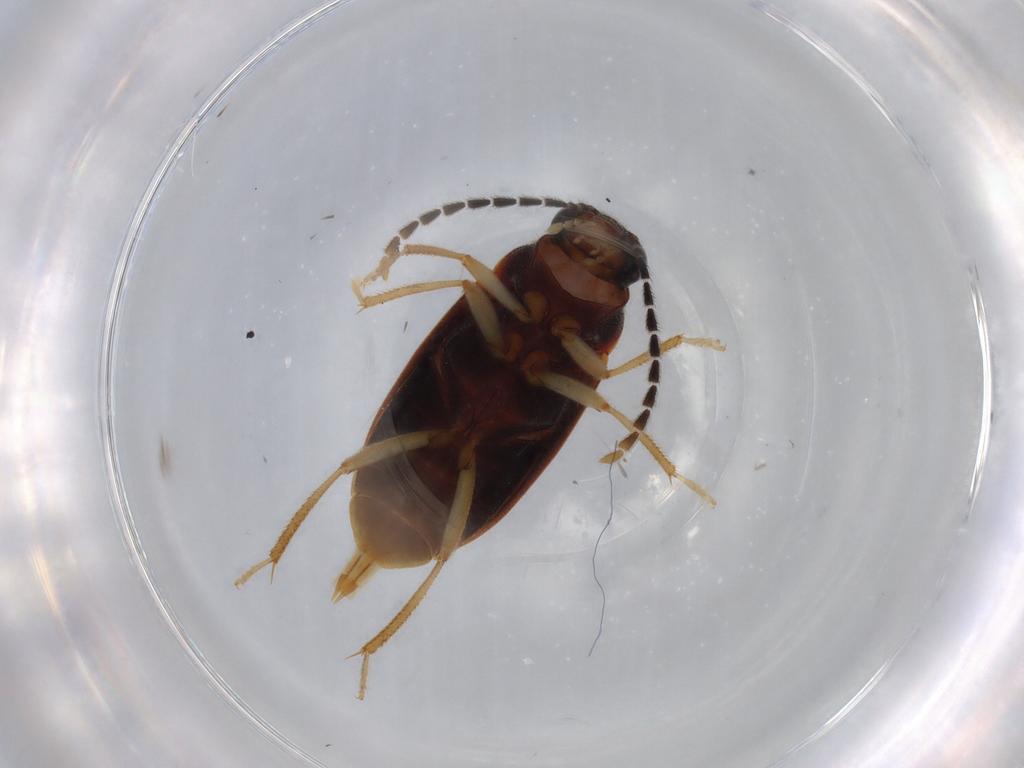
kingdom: Animalia
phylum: Arthropoda
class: Insecta
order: Coleoptera
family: Ptilodactylidae
